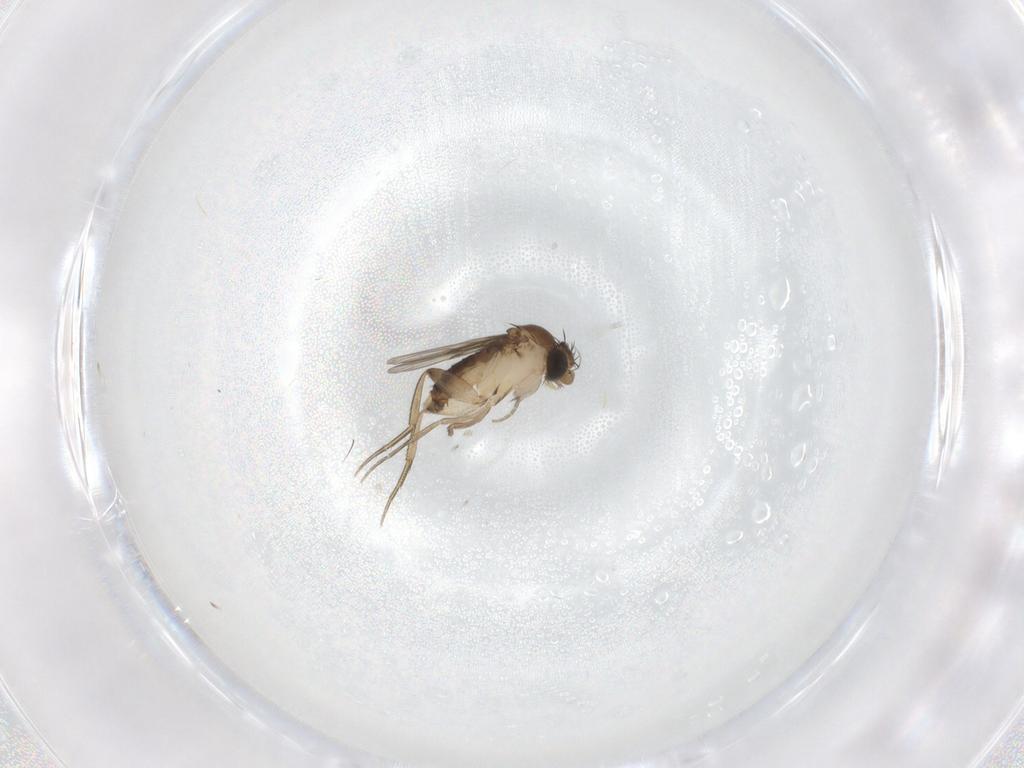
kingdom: Animalia
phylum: Arthropoda
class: Insecta
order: Diptera
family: Phoridae
